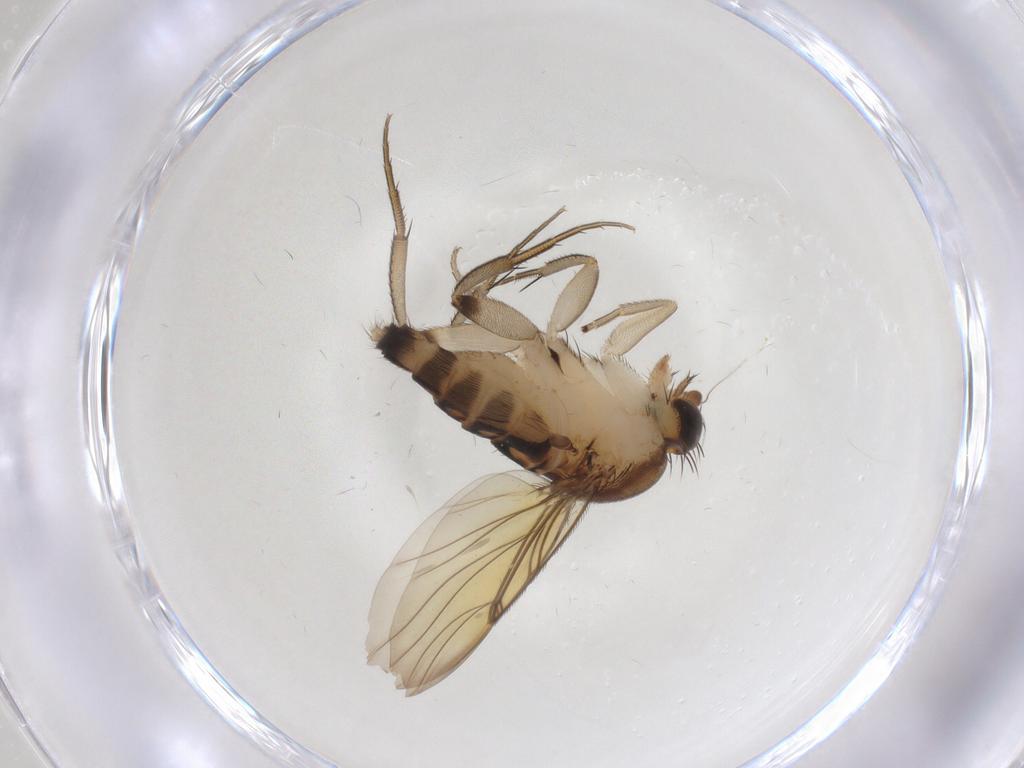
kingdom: Animalia
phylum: Arthropoda
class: Insecta
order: Diptera
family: Phoridae
